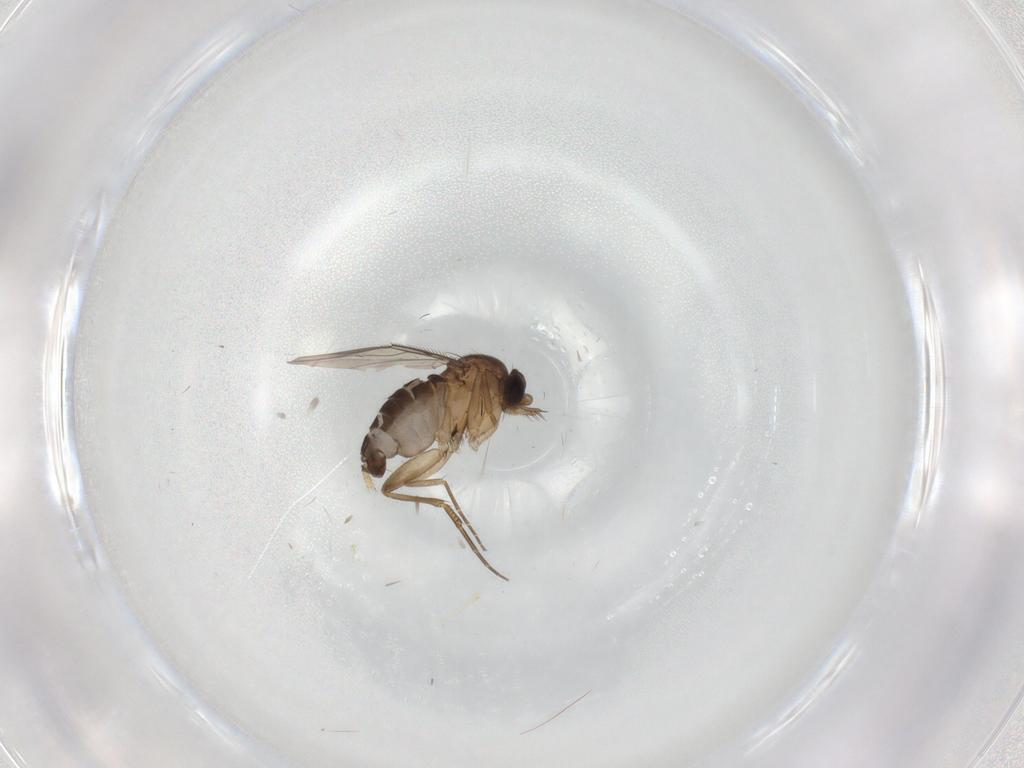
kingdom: Animalia
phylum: Arthropoda
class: Insecta
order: Diptera
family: Phoridae
